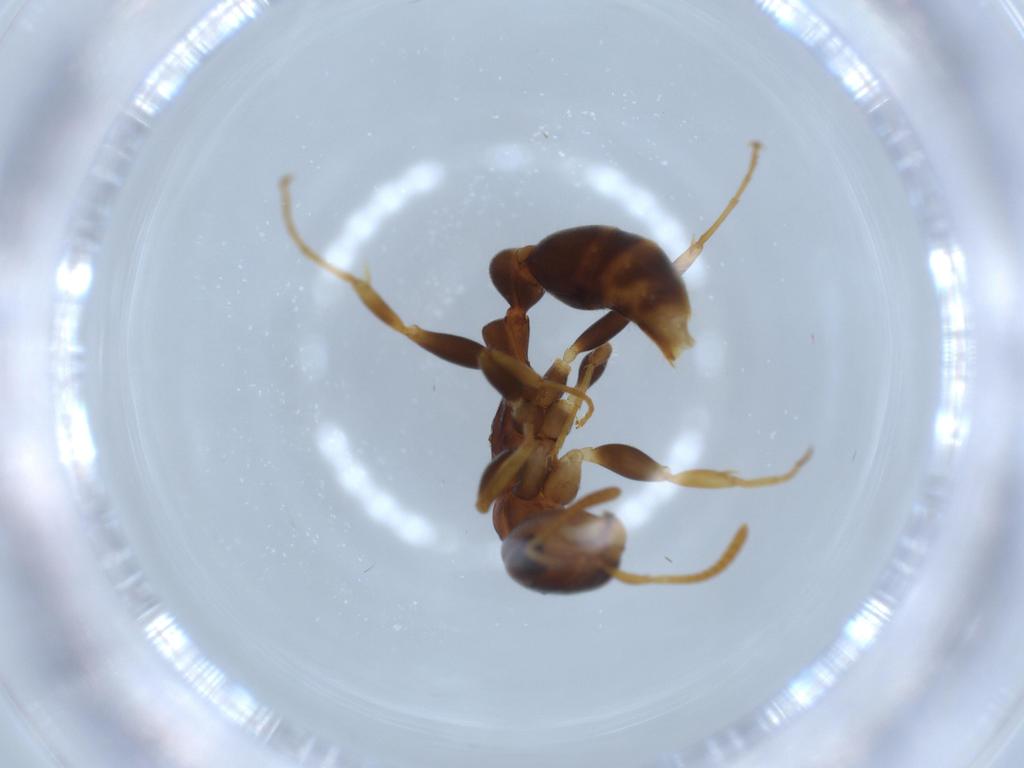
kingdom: Animalia
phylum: Arthropoda
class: Insecta
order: Hymenoptera
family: Formicidae
